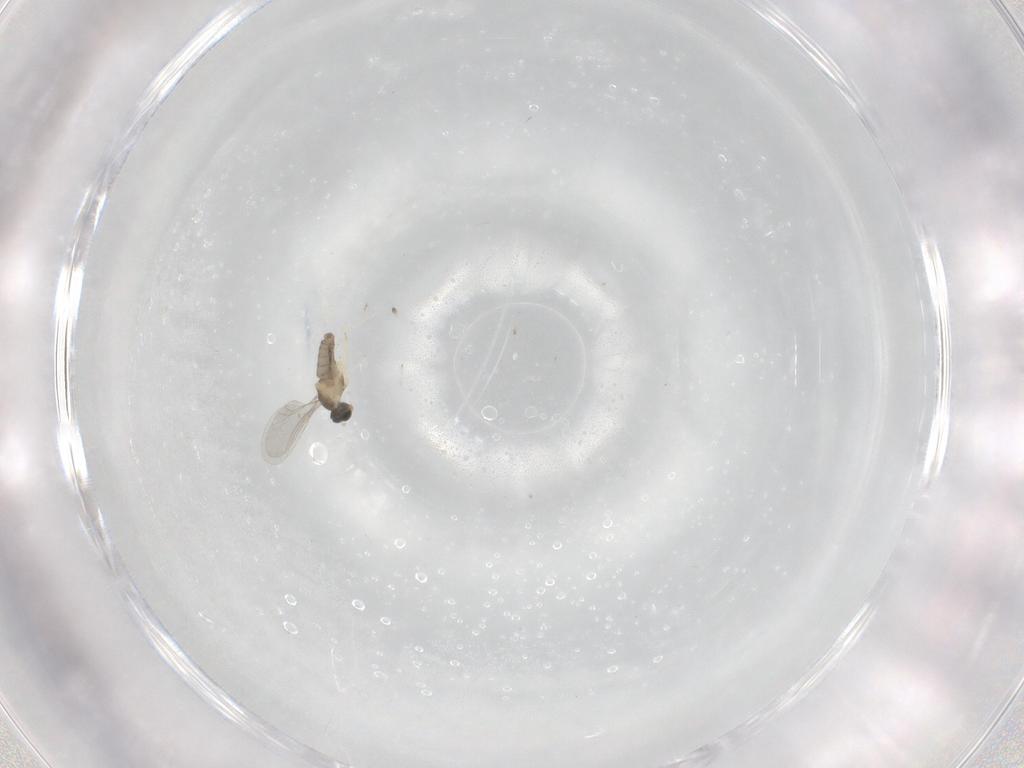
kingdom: Animalia
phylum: Arthropoda
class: Insecta
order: Diptera
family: Cecidomyiidae
